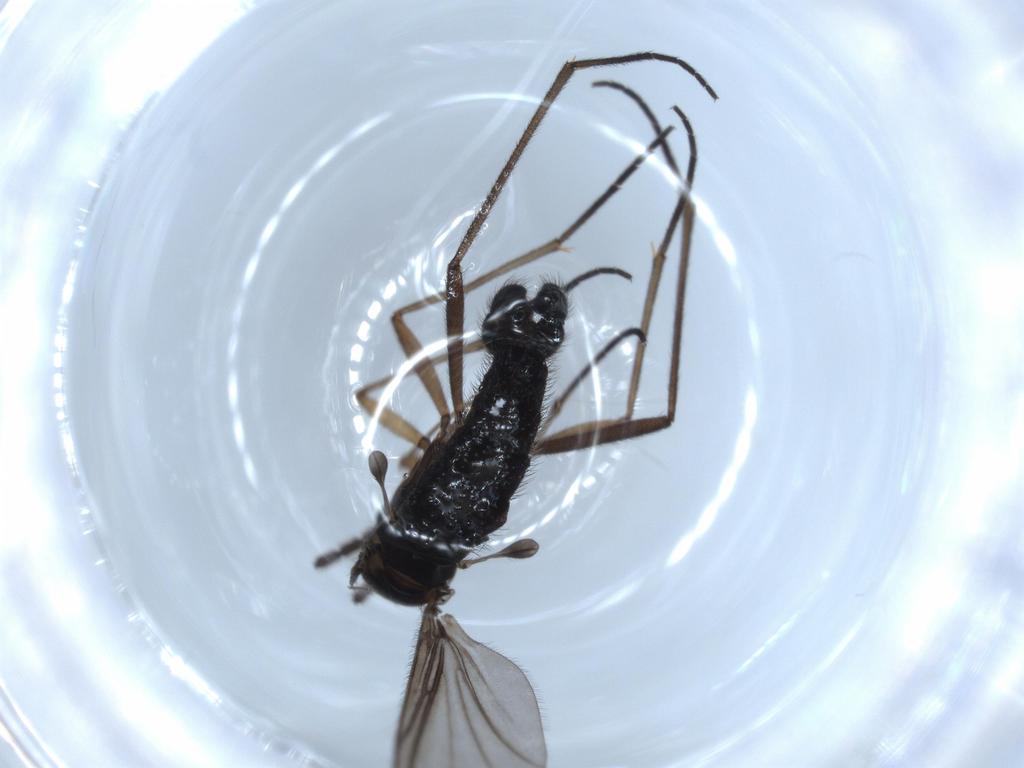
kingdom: Animalia
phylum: Arthropoda
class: Insecta
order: Diptera
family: Sciaridae
